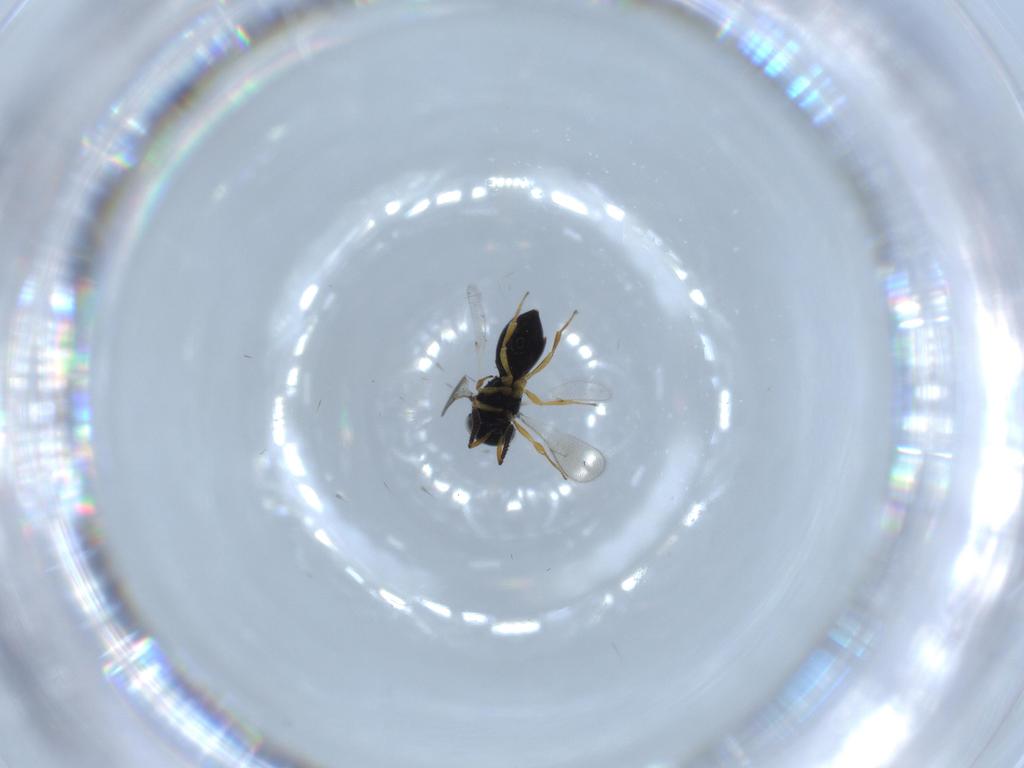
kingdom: Animalia
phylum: Arthropoda
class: Insecta
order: Hymenoptera
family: Scelionidae
